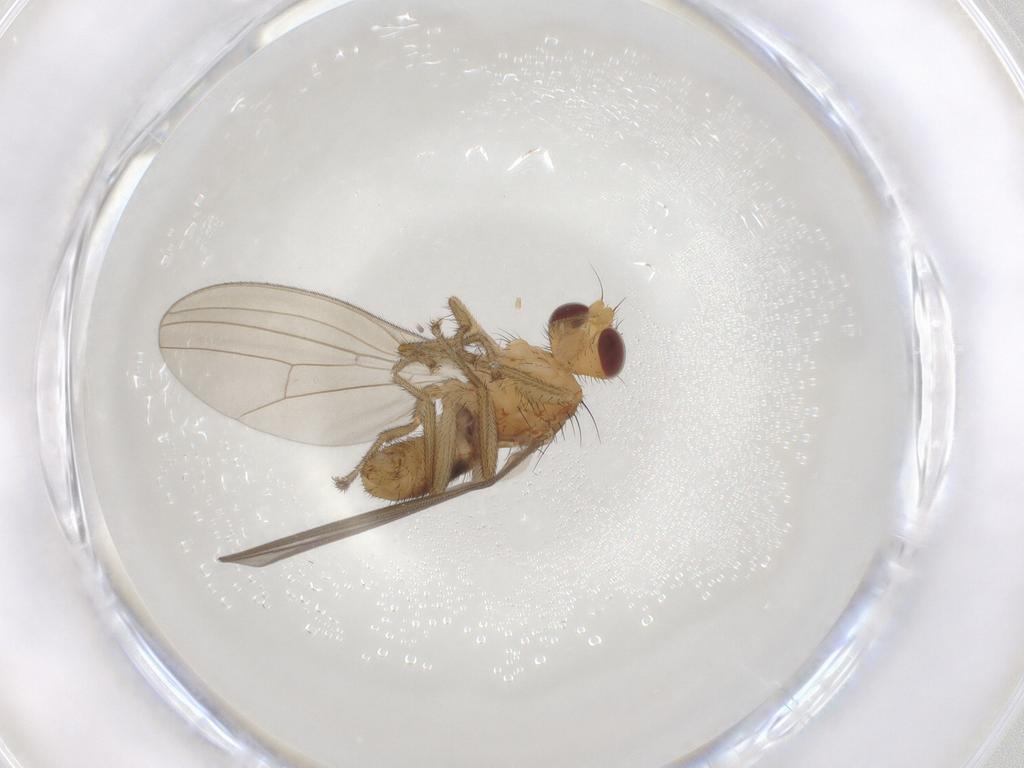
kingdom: Animalia
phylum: Arthropoda
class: Insecta
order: Diptera
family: Natalimyzidae
